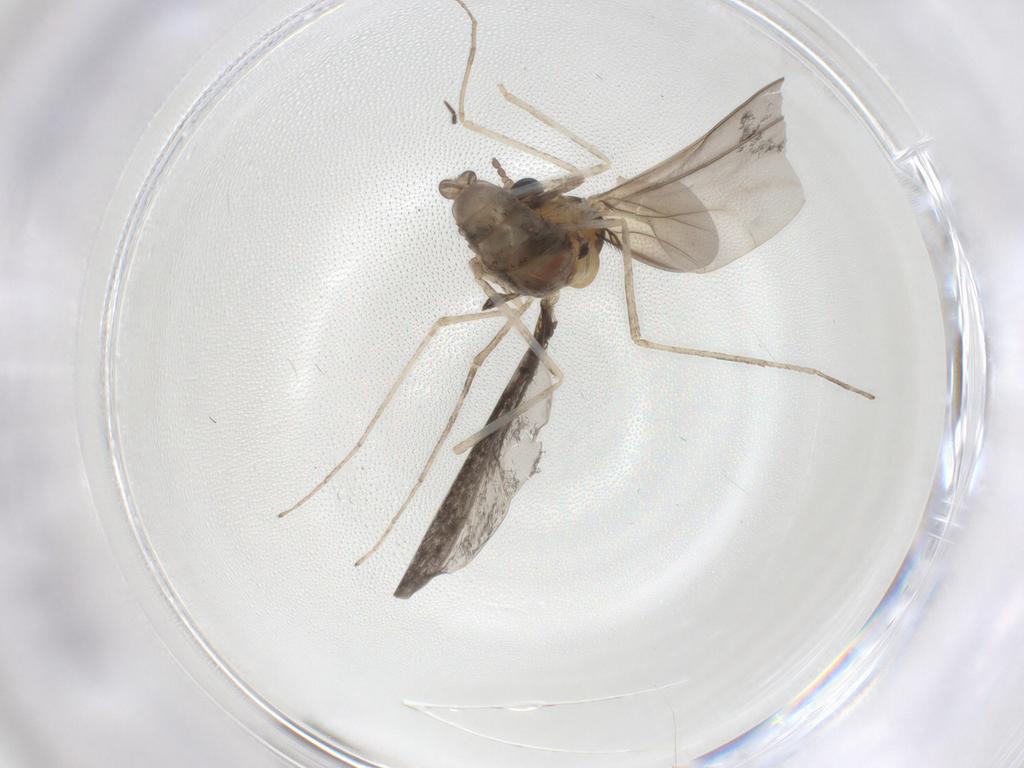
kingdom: Animalia
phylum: Arthropoda
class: Insecta
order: Diptera
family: Cecidomyiidae
